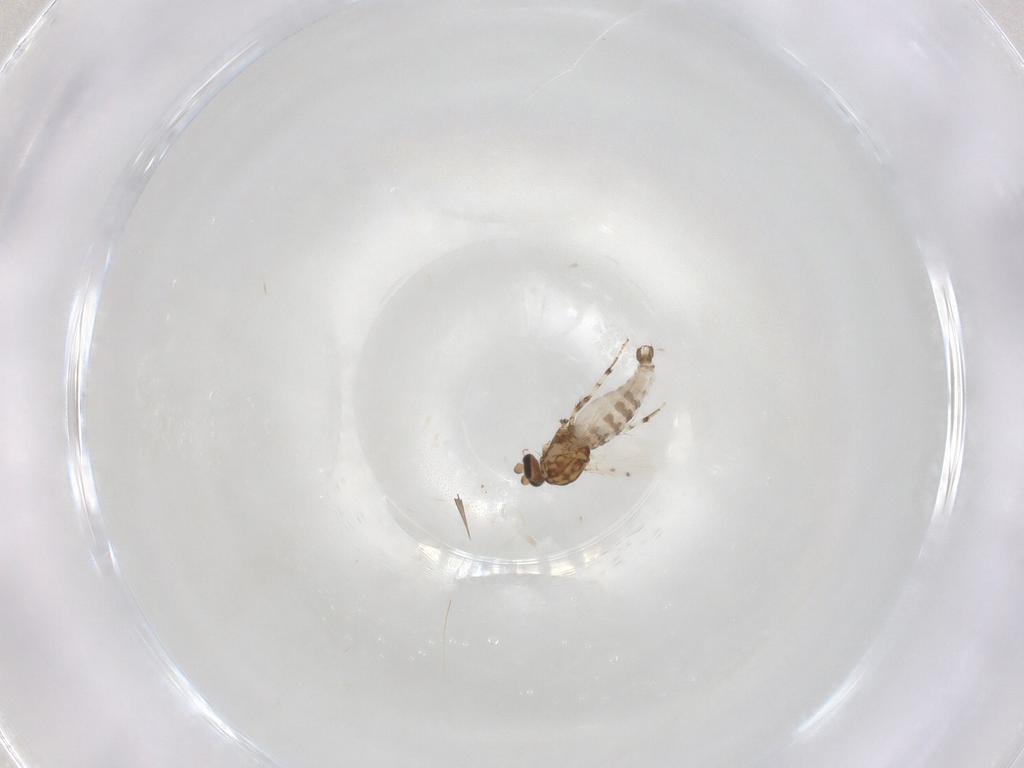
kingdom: Animalia
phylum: Arthropoda
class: Insecta
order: Diptera
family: Ceratopogonidae
